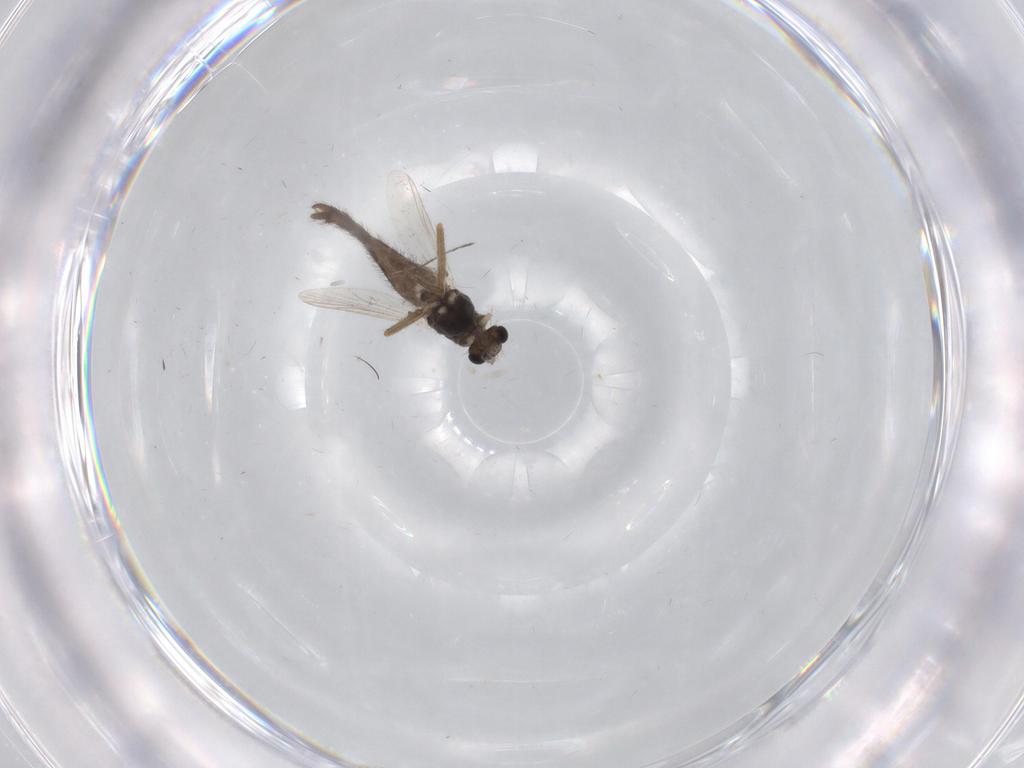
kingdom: Animalia
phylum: Arthropoda
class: Insecta
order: Diptera
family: Chironomidae
